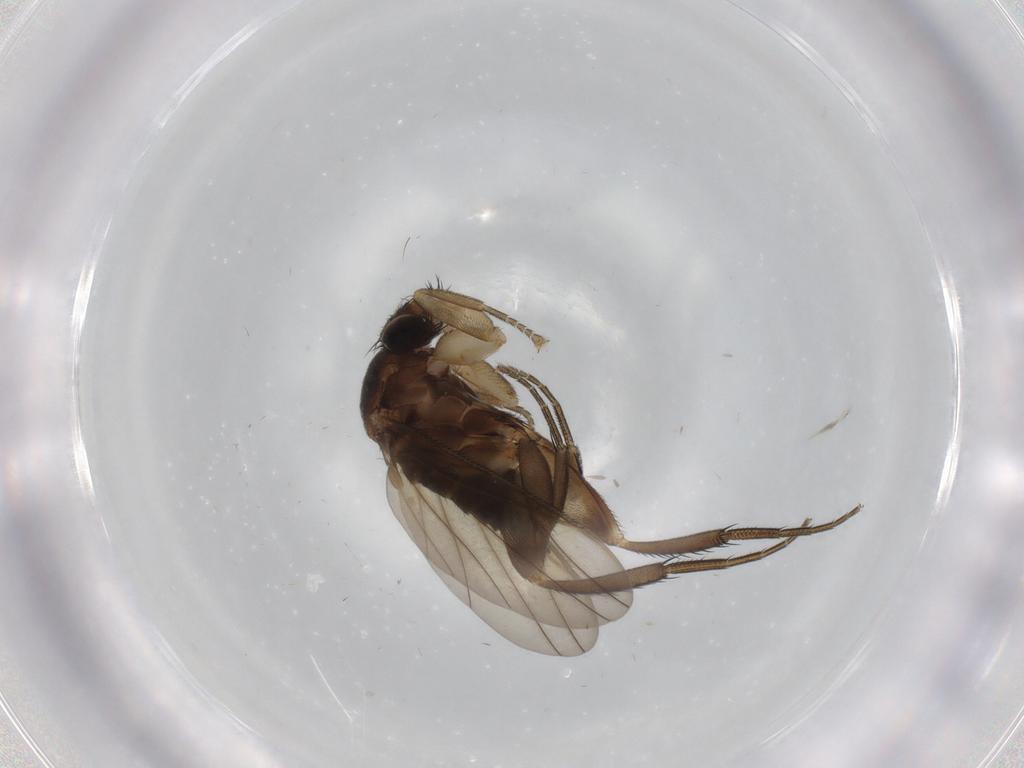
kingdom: Animalia
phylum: Arthropoda
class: Insecta
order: Diptera
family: Phoridae
